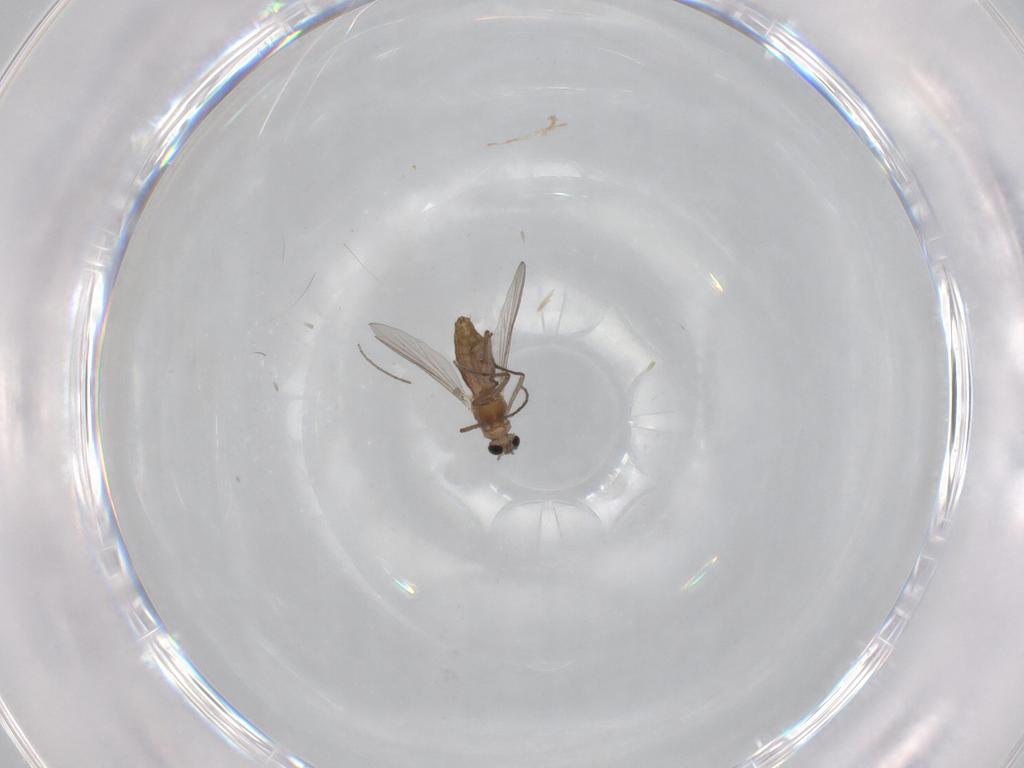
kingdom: Animalia
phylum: Arthropoda
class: Insecta
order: Diptera
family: Chironomidae
